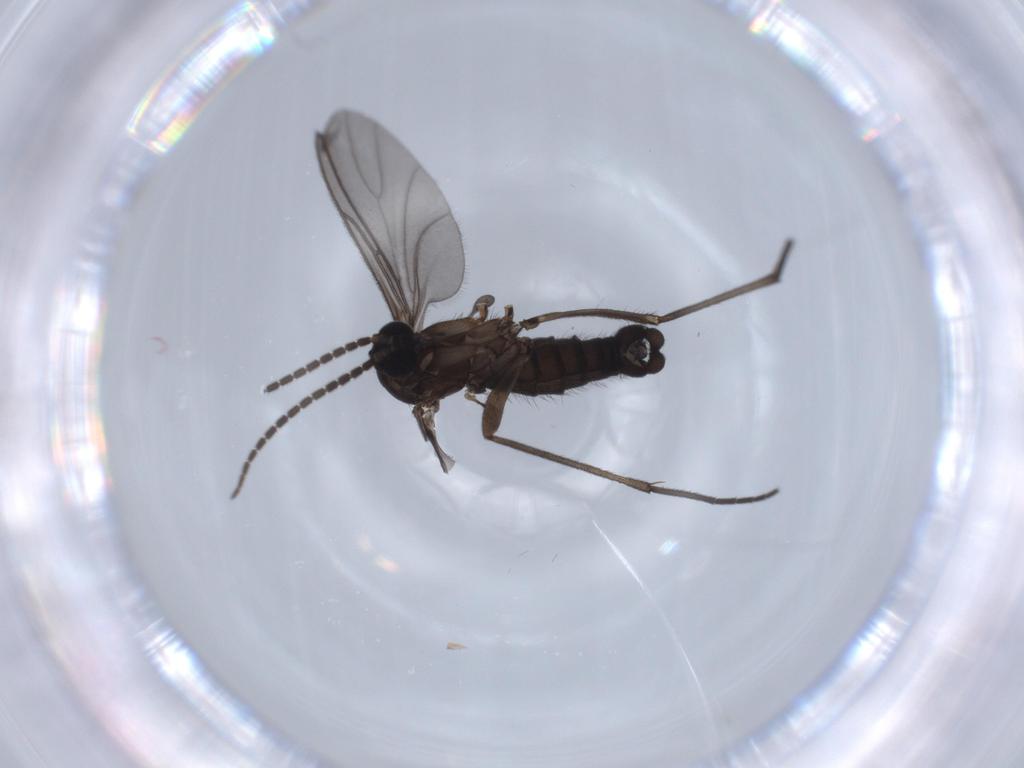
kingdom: Animalia
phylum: Arthropoda
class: Insecta
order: Diptera
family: Sciaridae
